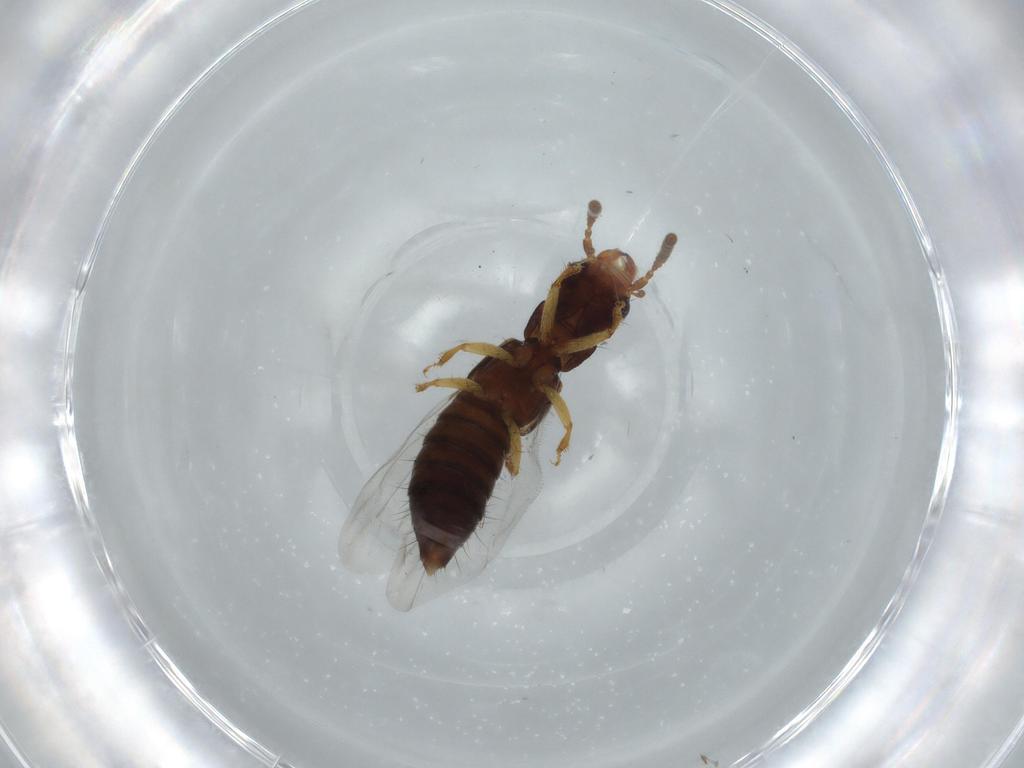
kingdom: Animalia
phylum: Arthropoda
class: Insecta
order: Coleoptera
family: Staphylinidae
